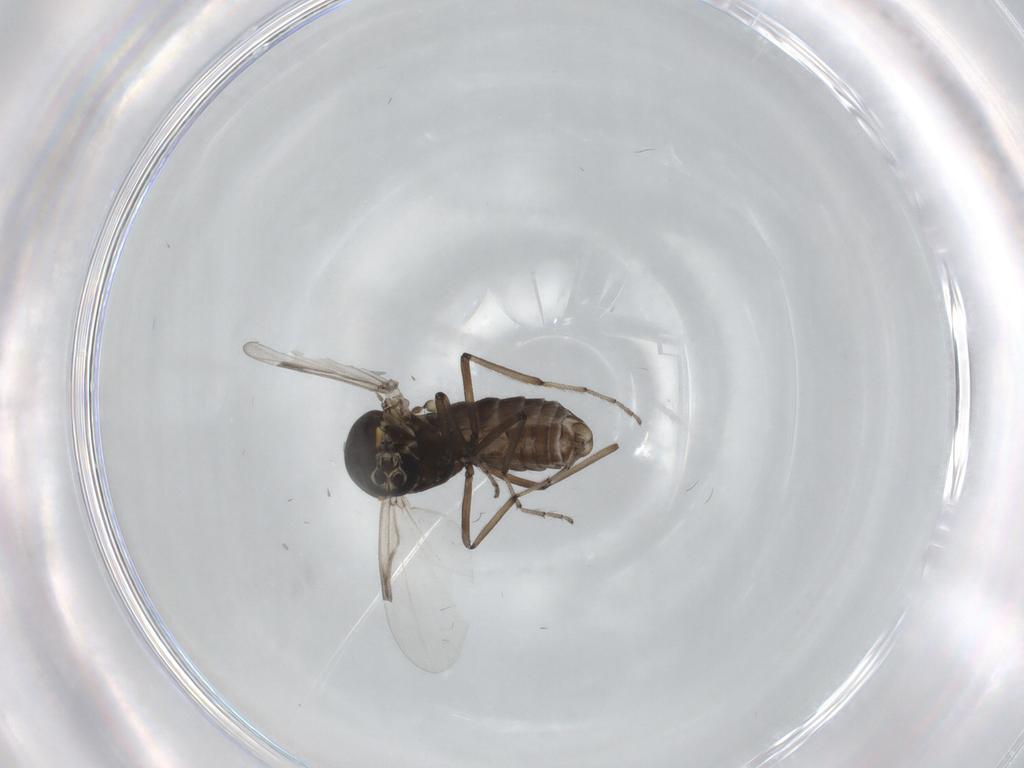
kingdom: Animalia
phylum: Arthropoda
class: Insecta
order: Diptera
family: Ceratopogonidae
